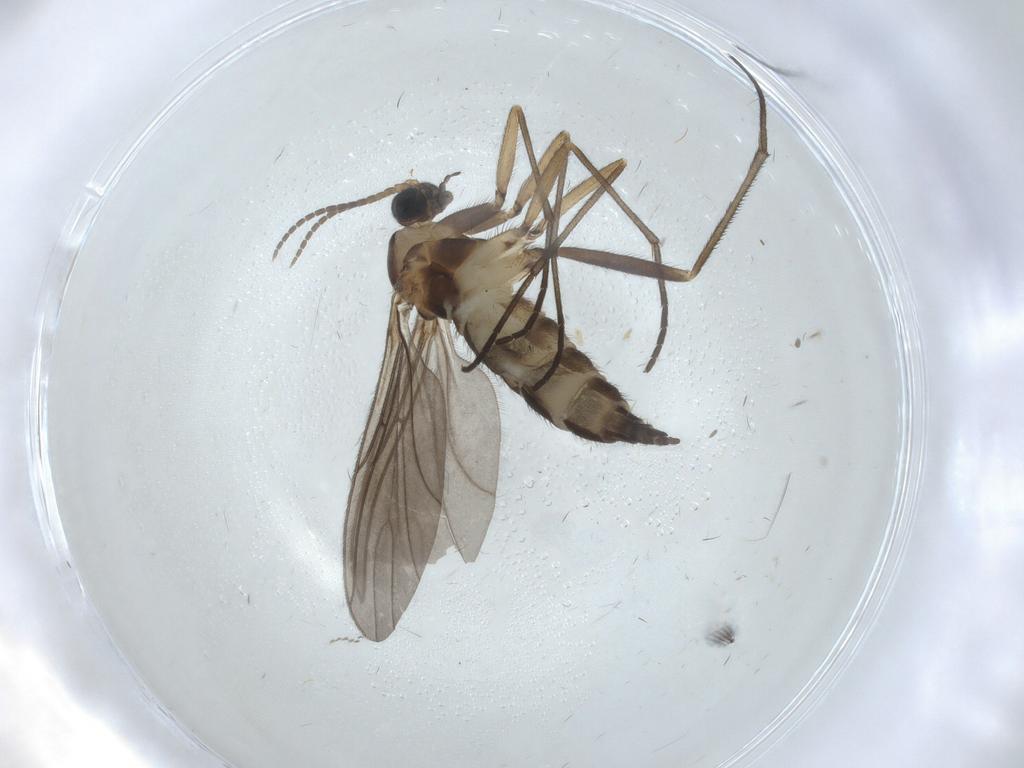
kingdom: Animalia
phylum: Arthropoda
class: Insecta
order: Diptera
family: Sciaridae
